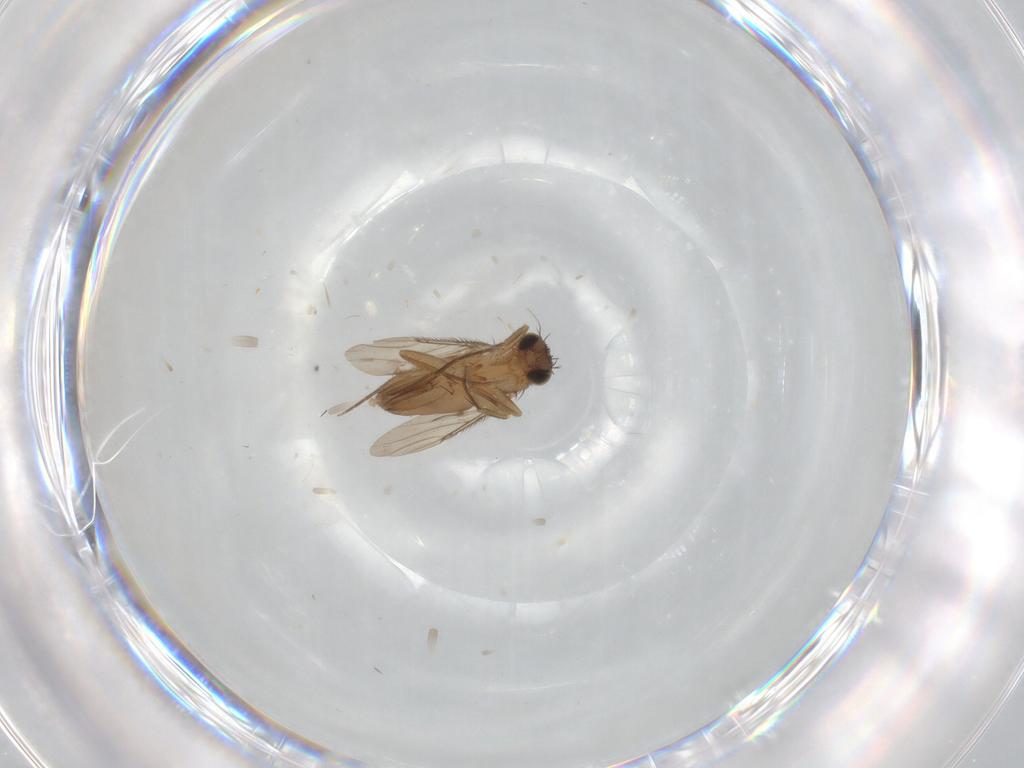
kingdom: Animalia
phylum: Arthropoda
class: Insecta
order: Diptera
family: Phoridae
